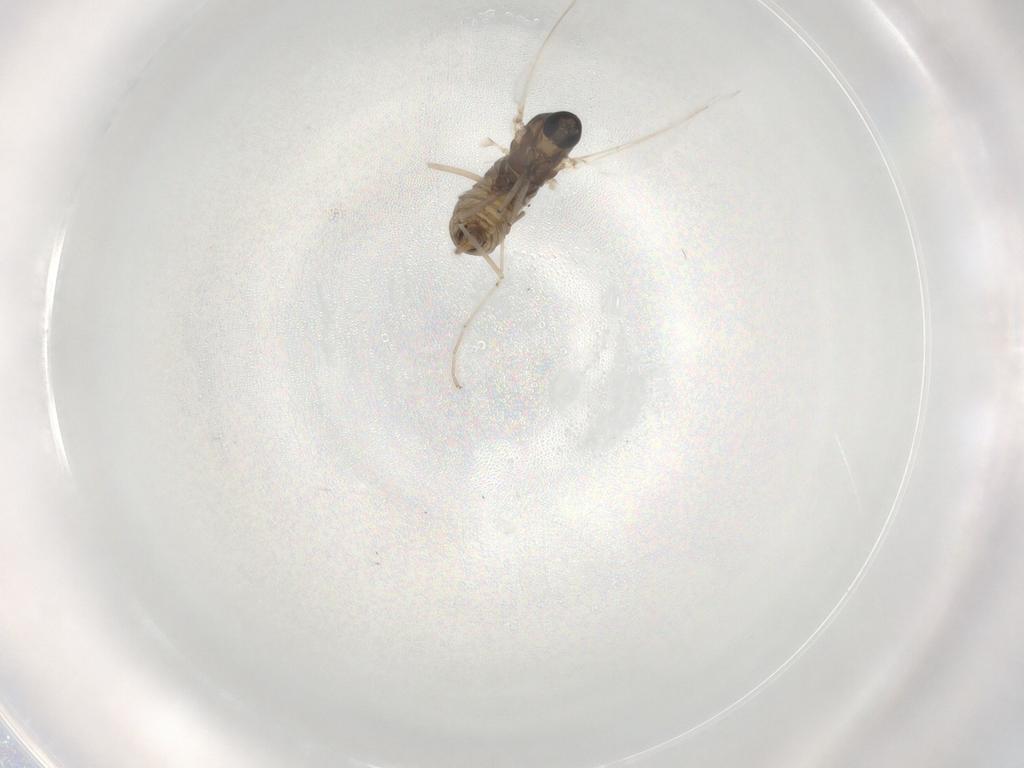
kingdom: Animalia
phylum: Arthropoda
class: Insecta
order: Diptera
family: Cecidomyiidae
